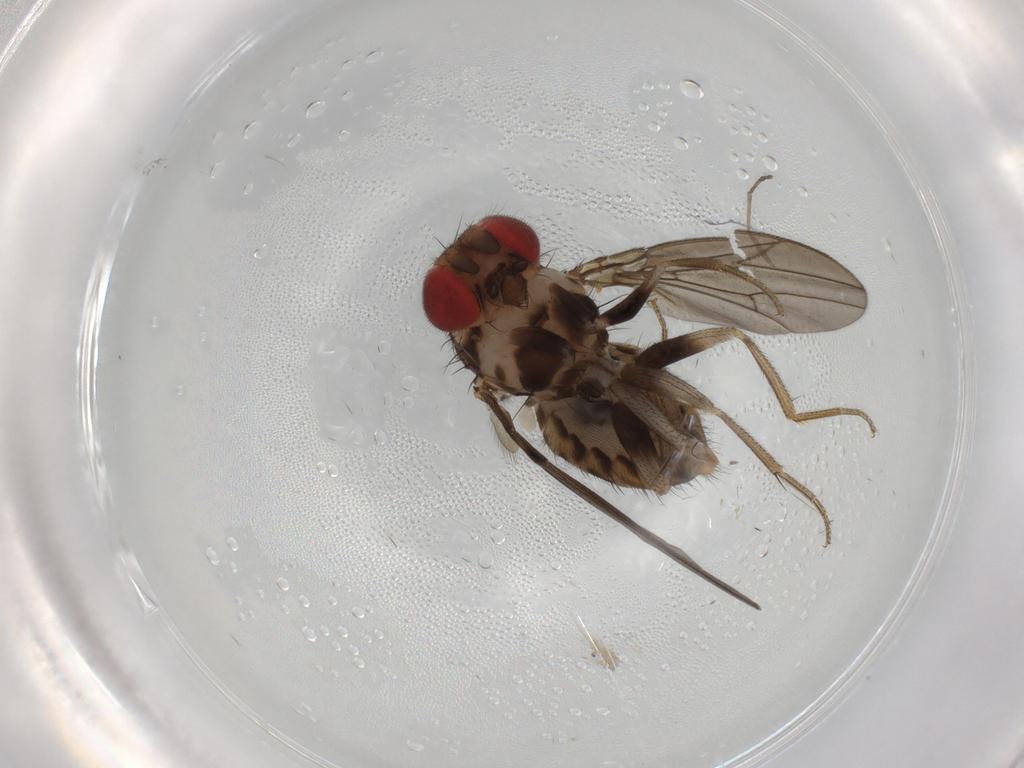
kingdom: Animalia
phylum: Arthropoda
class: Insecta
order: Diptera
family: Drosophilidae
